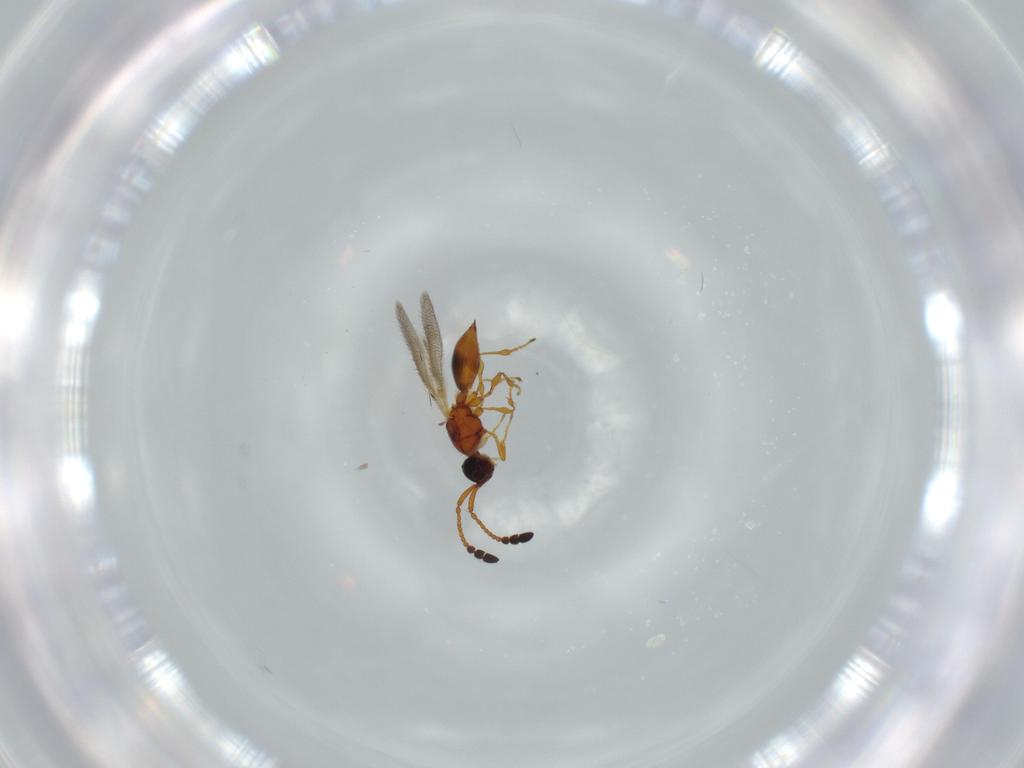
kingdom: Animalia
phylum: Arthropoda
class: Insecta
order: Hymenoptera
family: Diapriidae
